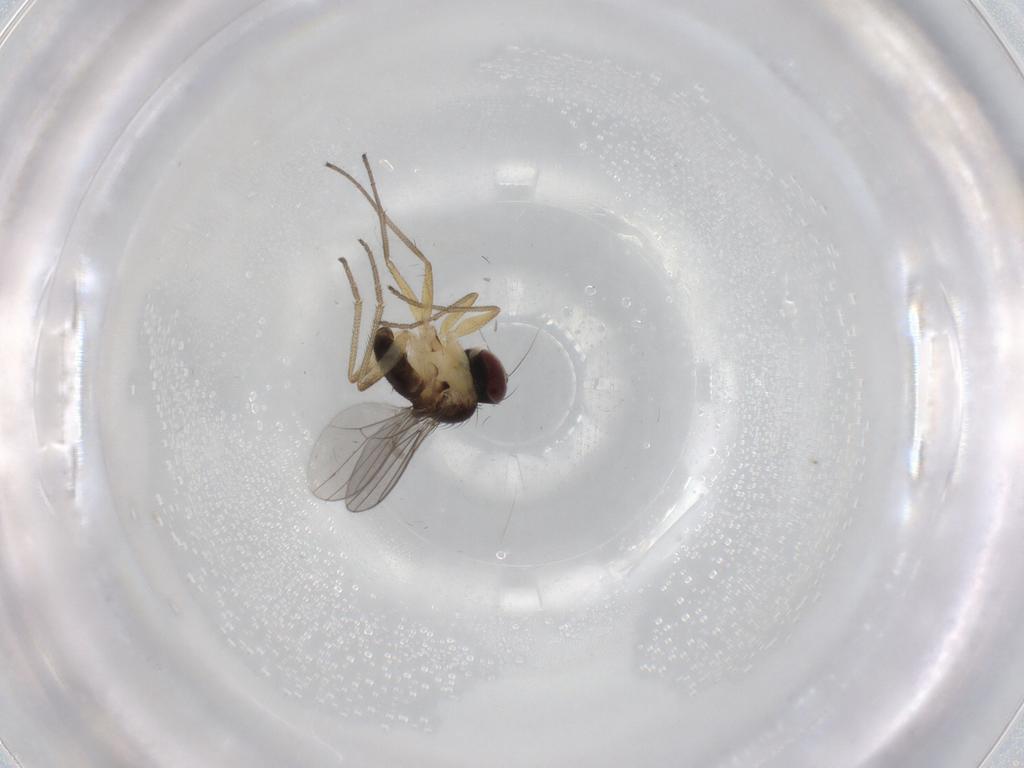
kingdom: Animalia
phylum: Arthropoda
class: Insecta
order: Diptera
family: Dolichopodidae
